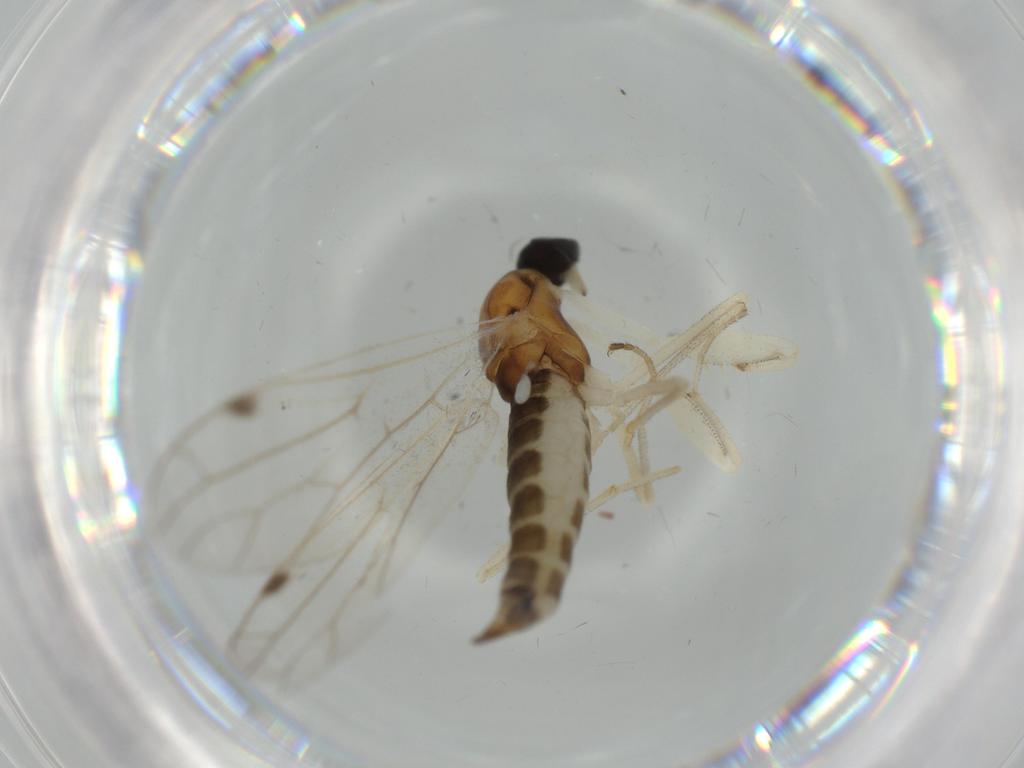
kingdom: Animalia
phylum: Arthropoda
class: Insecta
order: Diptera
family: Empididae
